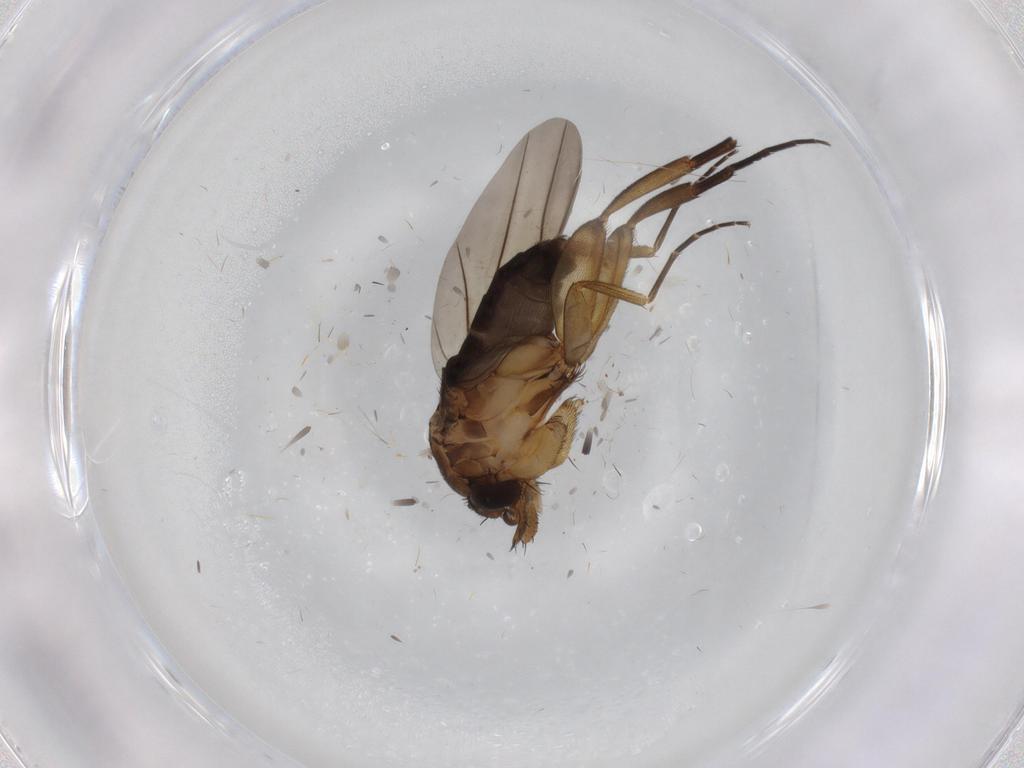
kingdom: Animalia
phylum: Arthropoda
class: Insecta
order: Diptera
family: Phoridae
